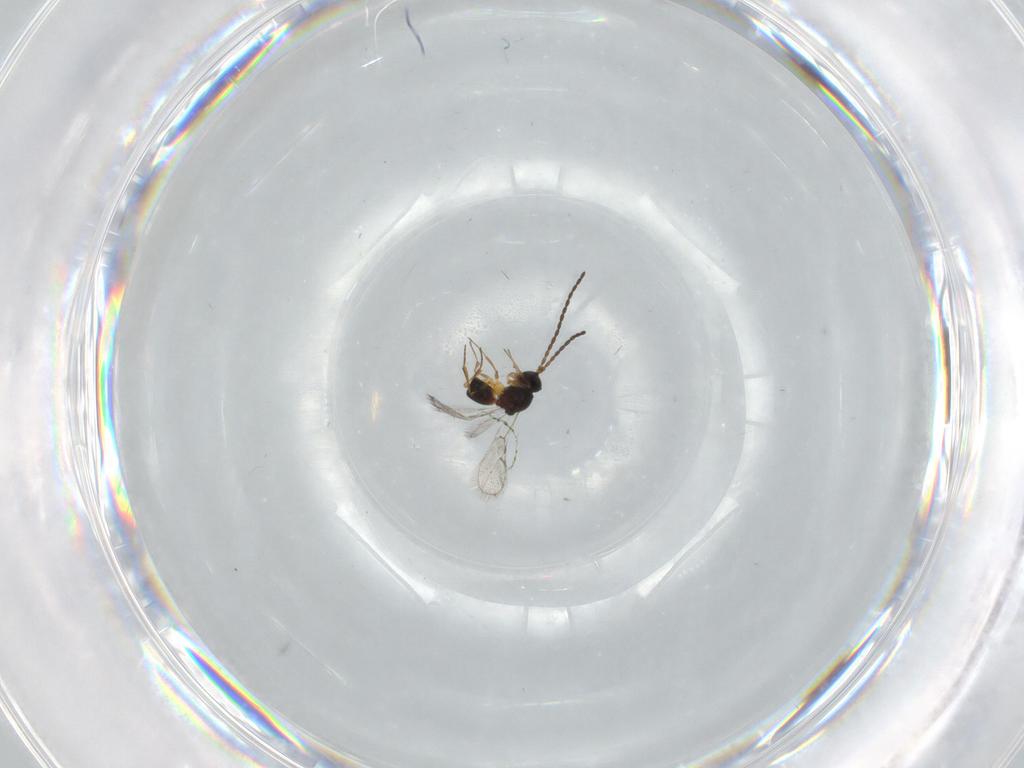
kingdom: Animalia
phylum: Arthropoda
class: Insecta
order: Hymenoptera
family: Figitidae
